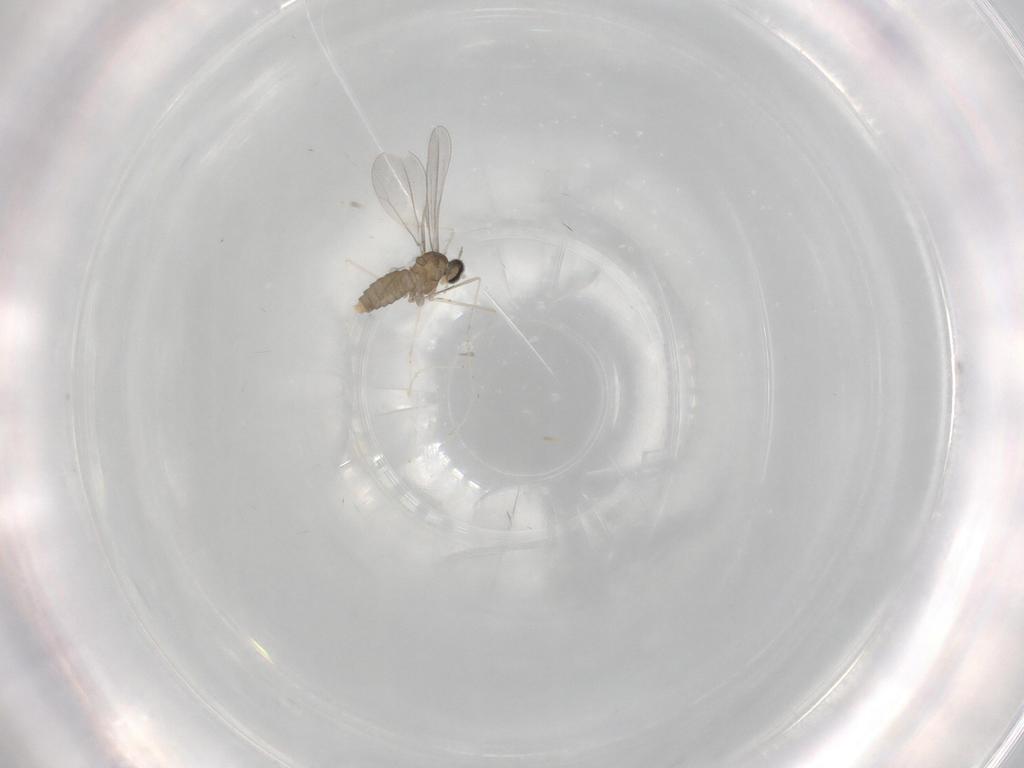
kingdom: Animalia
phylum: Arthropoda
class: Insecta
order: Diptera
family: Cecidomyiidae
